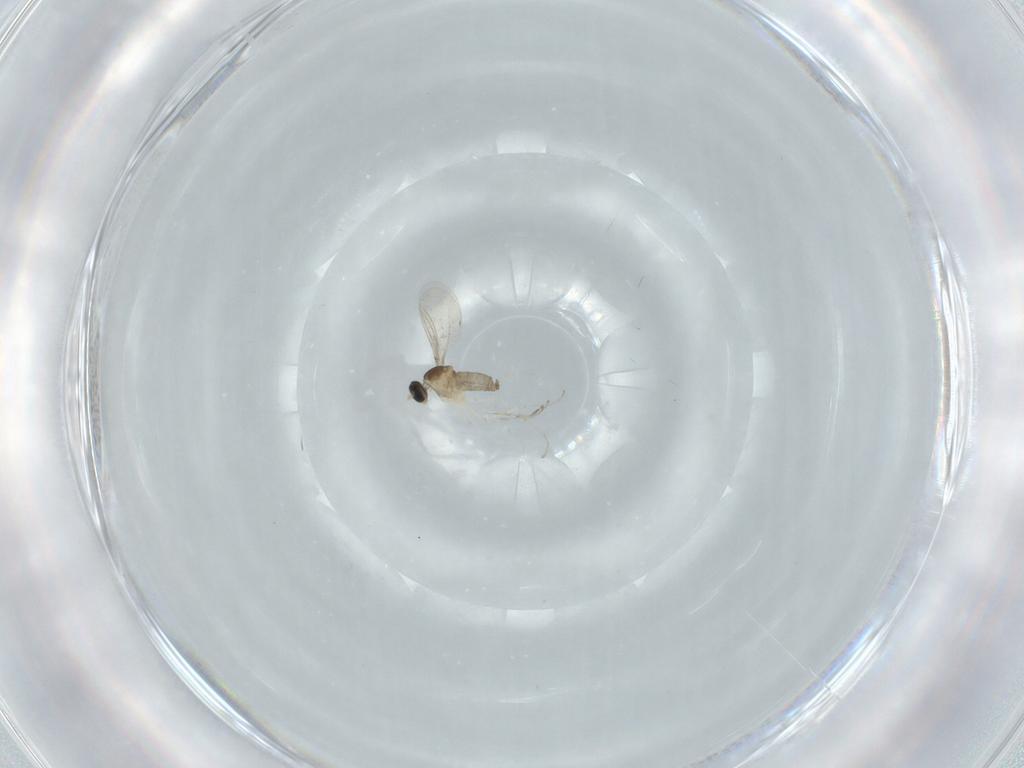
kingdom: Animalia
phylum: Arthropoda
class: Insecta
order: Diptera
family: Cecidomyiidae
